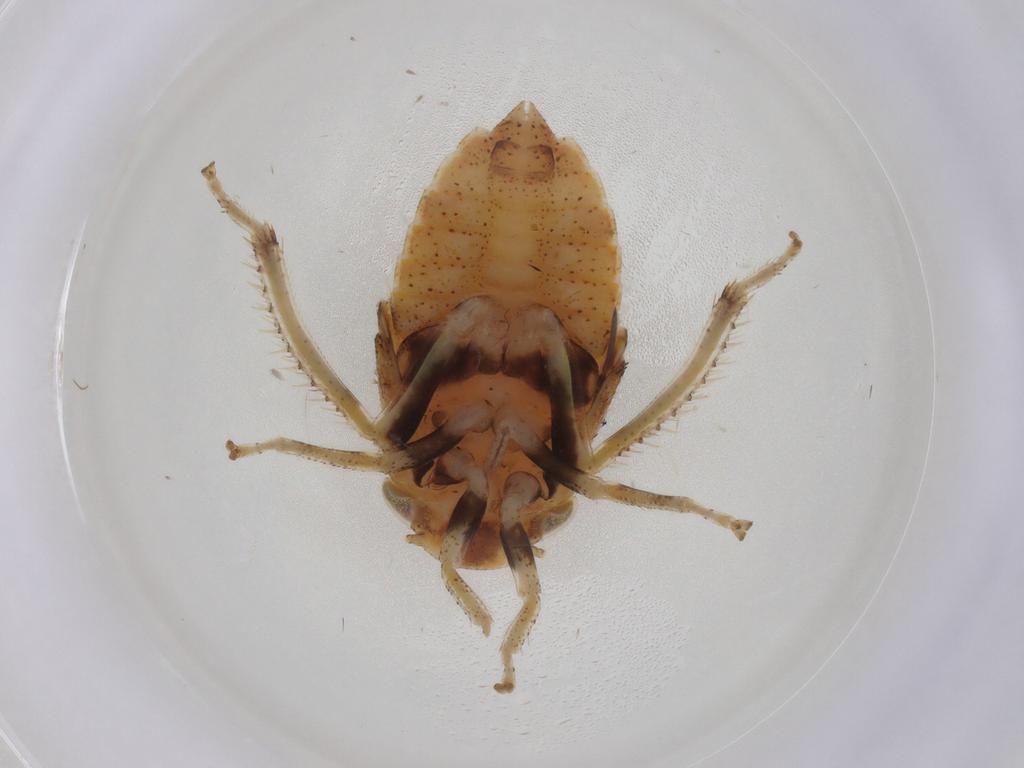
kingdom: Animalia
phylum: Arthropoda
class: Insecta
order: Hemiptera
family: Cicadellidae
